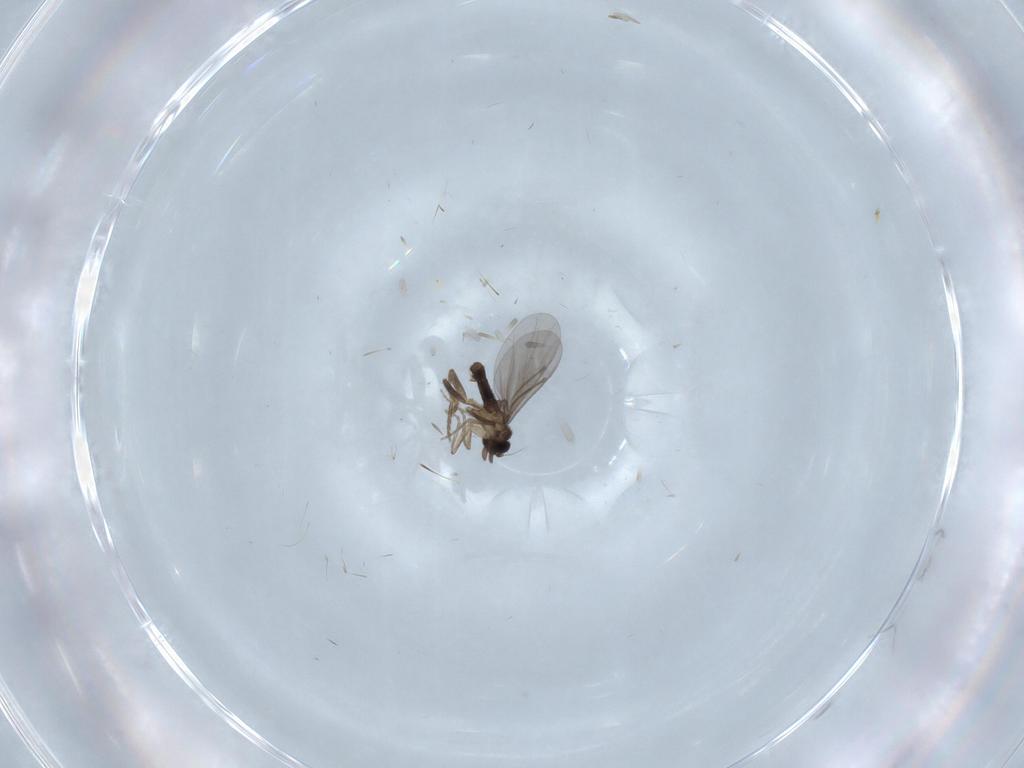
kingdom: Animalia
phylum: Arthropoda
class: Insecta
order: Diptera
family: Cecidomyiidae
